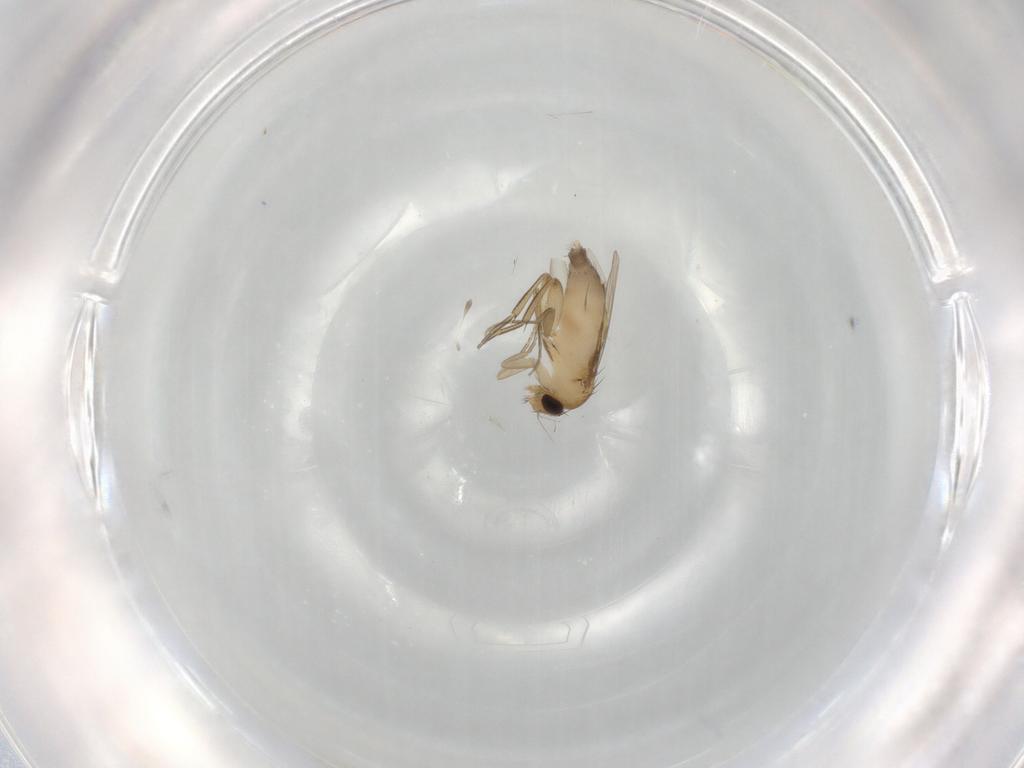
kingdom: Animalia
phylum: Arthropoda
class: Insecta
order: Diptera
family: Phoridae
